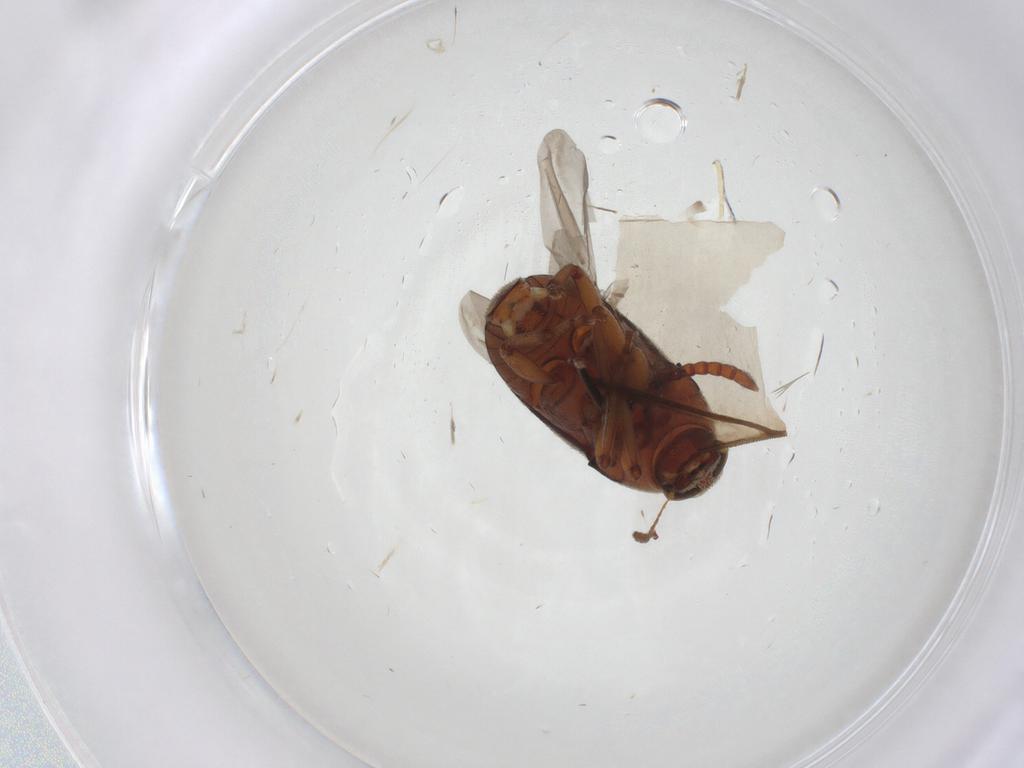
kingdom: Animalia
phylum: Arthropoda
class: Insecta
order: Coleoptera
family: Anthribidae
